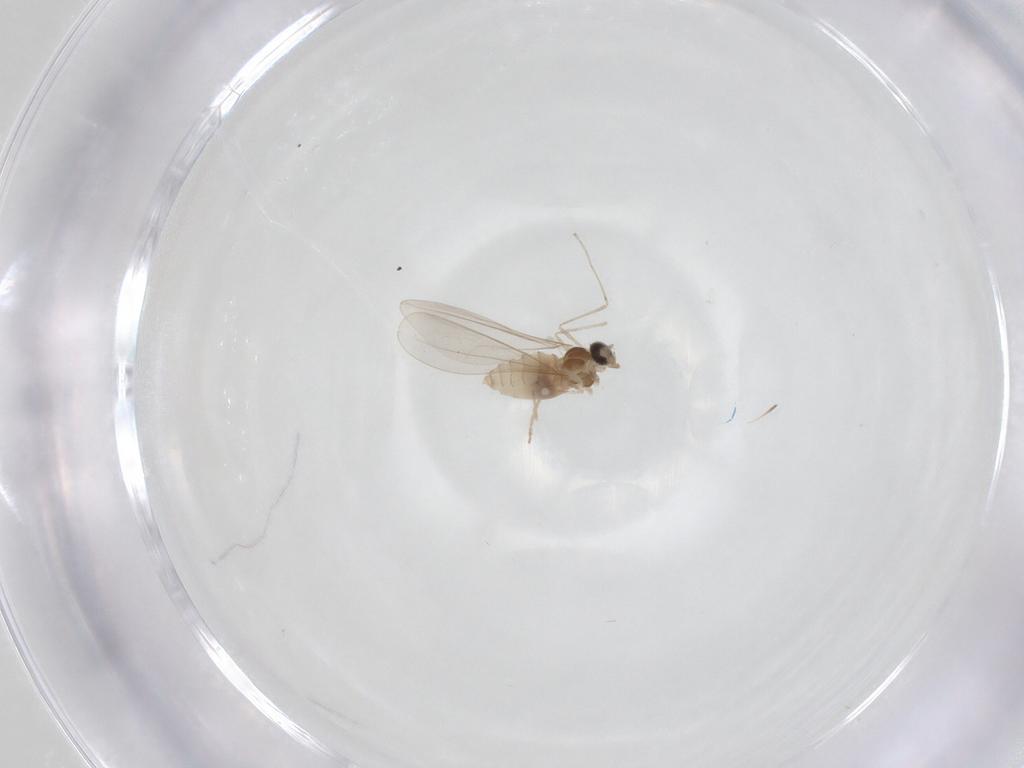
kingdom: Animalia
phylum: Arthropoda
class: Insecta
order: Diptera
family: Cecidomyiidae
